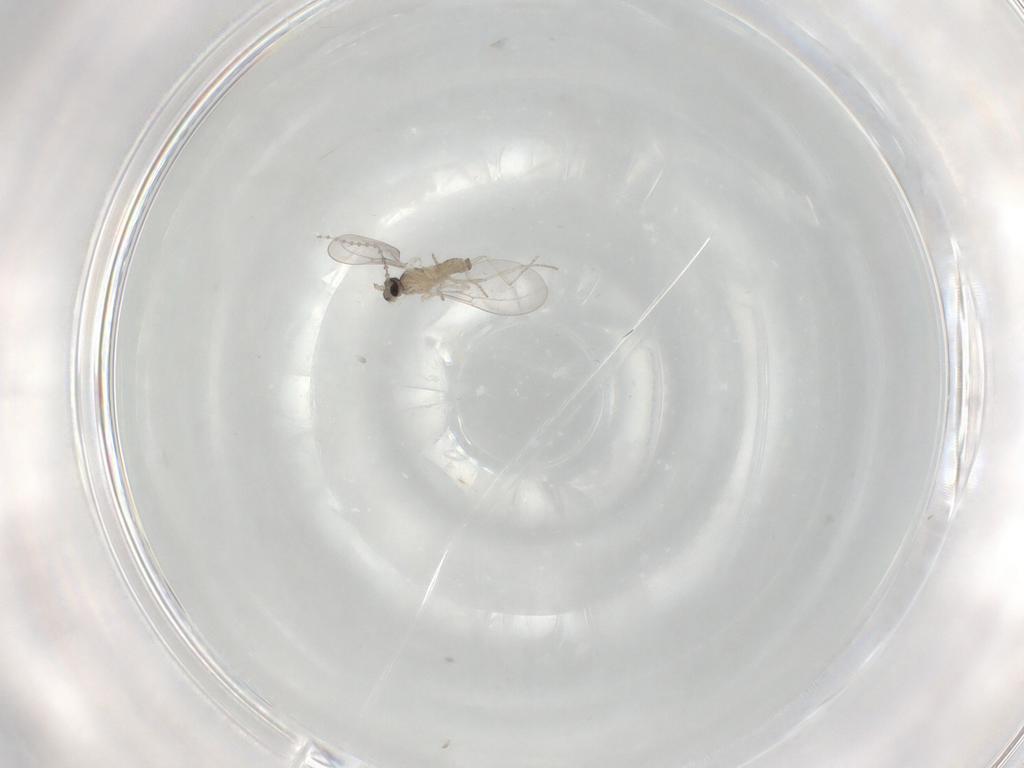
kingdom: Animalia
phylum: Arthropoda
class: Insecta
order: Diptera
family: Cecidomyiidae
